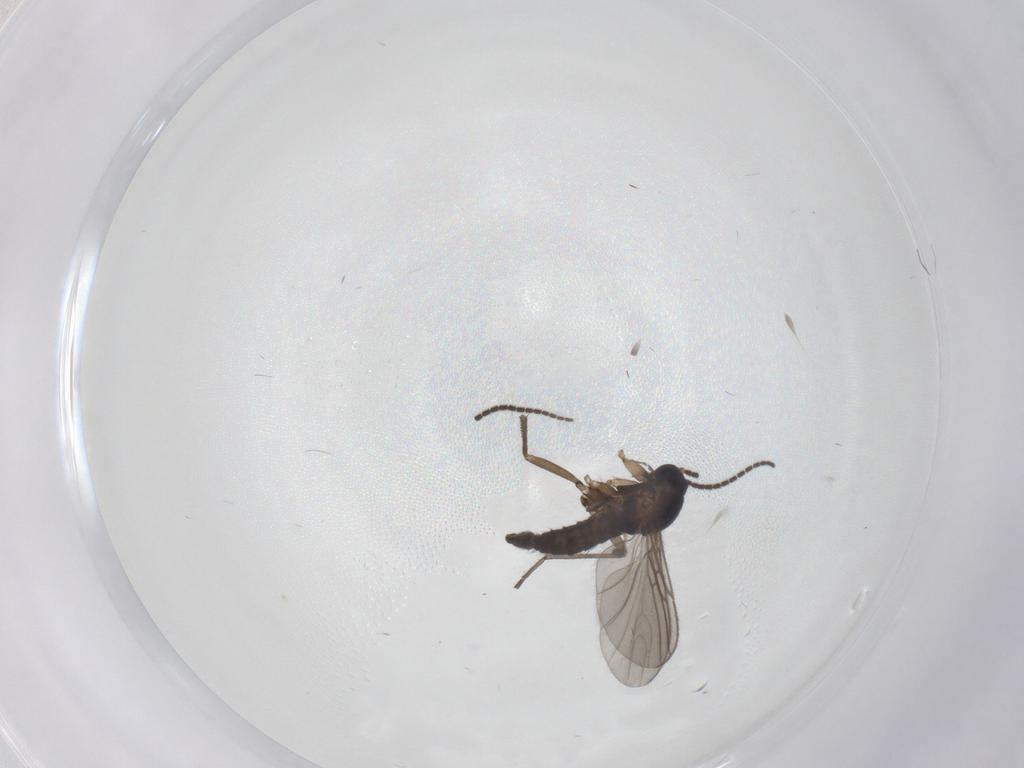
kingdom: Animalia
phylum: Arthropoda
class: Insecta
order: Diptera
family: Sciaridae
